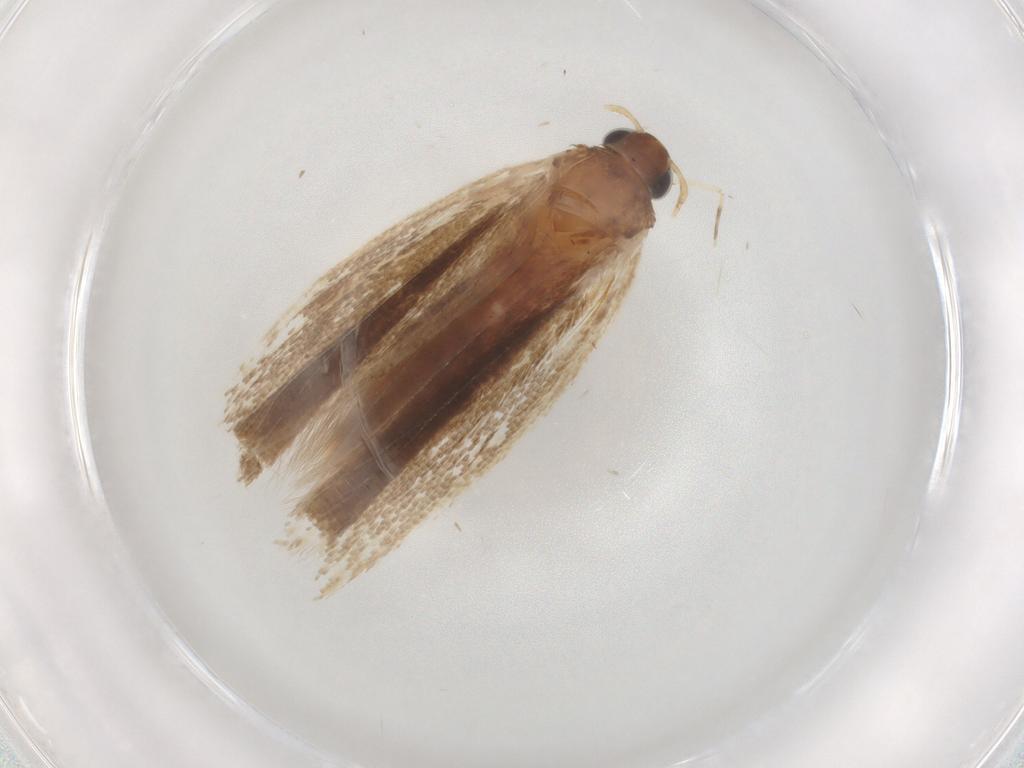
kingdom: Animalia
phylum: Arthropoda
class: Insecta
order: Lepidoptera
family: Gelechiidae
